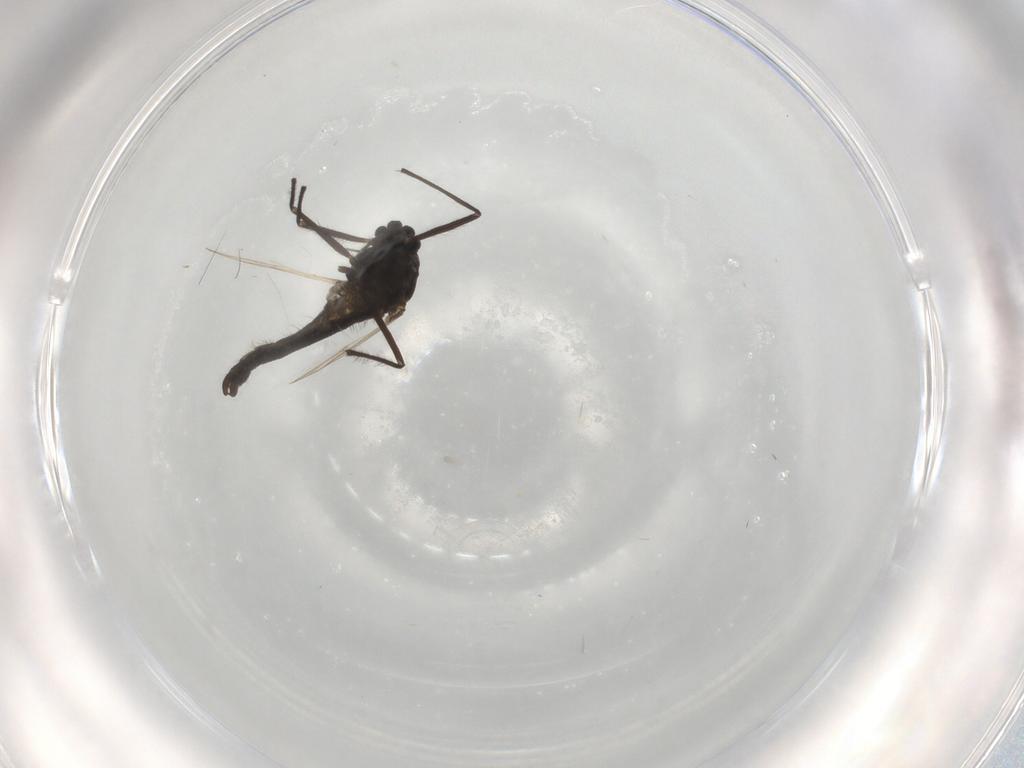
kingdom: Animalia
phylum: Arthropoda
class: Insecta
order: Diptera
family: Chironomidae
